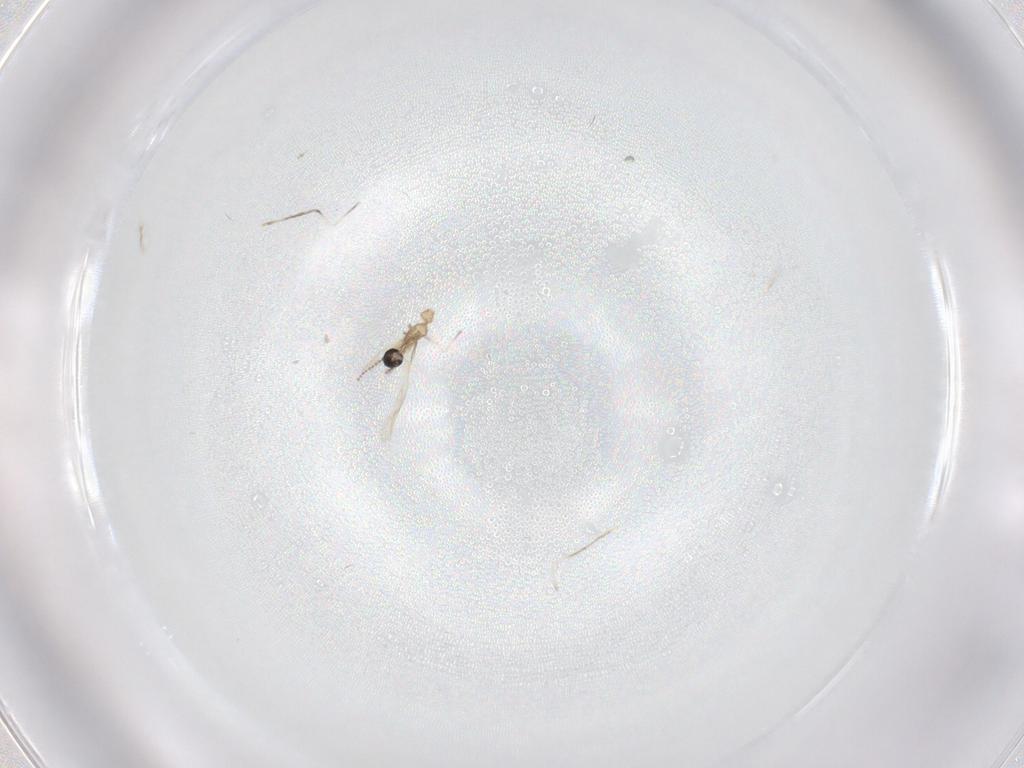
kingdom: Animalia
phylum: Arthropoda
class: Insecta
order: Diptera
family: Cecidomyiidae
